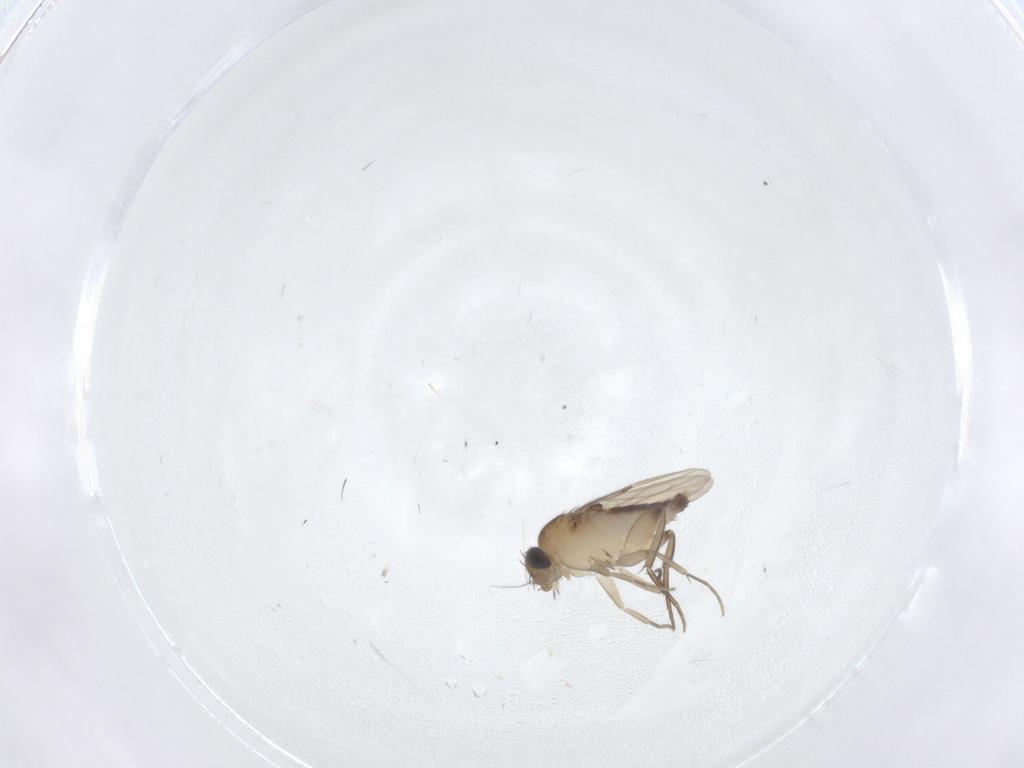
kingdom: Animalia
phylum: Arthropoda
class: Insecta
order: Diptera
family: Phoridae
